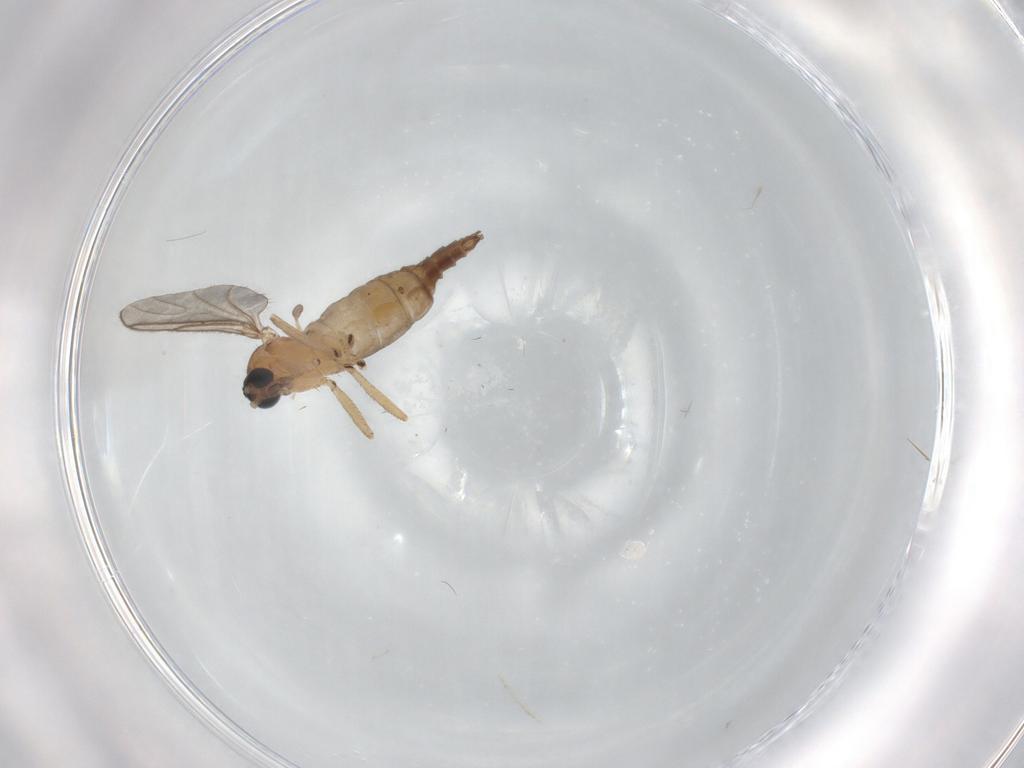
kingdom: Animalia
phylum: Arthropoda
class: Insecta
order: Diptera
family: Sciaridae
